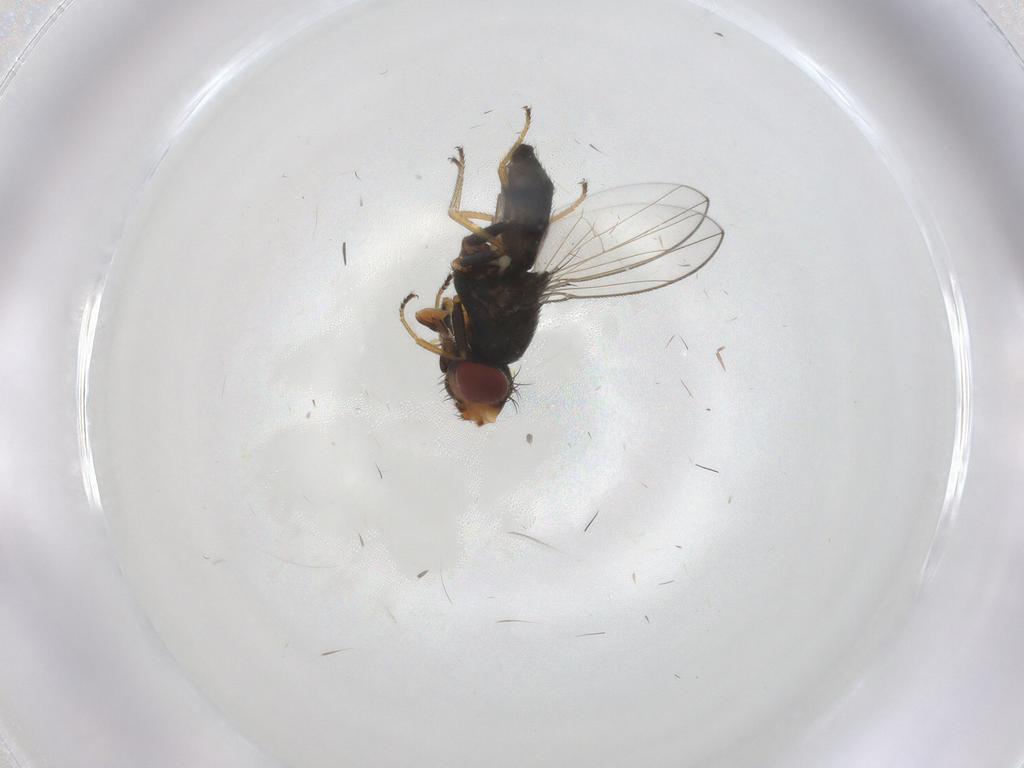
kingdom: Animalia
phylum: Arthropoda
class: Insecta
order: Diptera
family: Ephydridae
